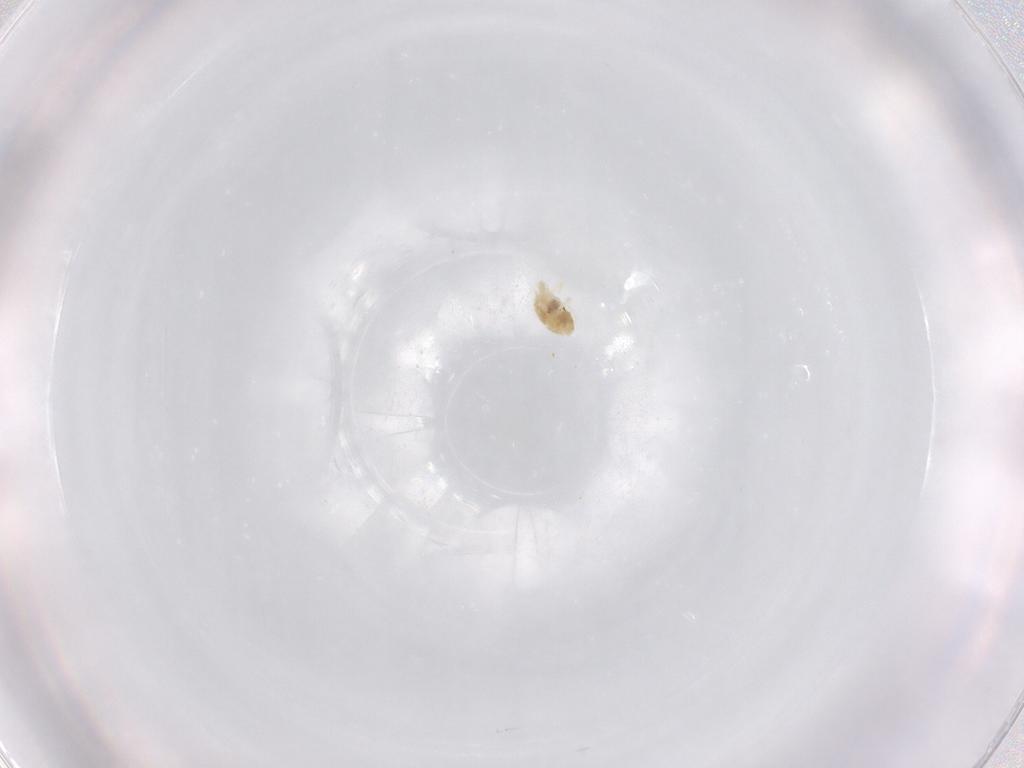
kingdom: Animalia
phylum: Arthropoda
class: Arachnida
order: Trombidiformes
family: Eupodidae
